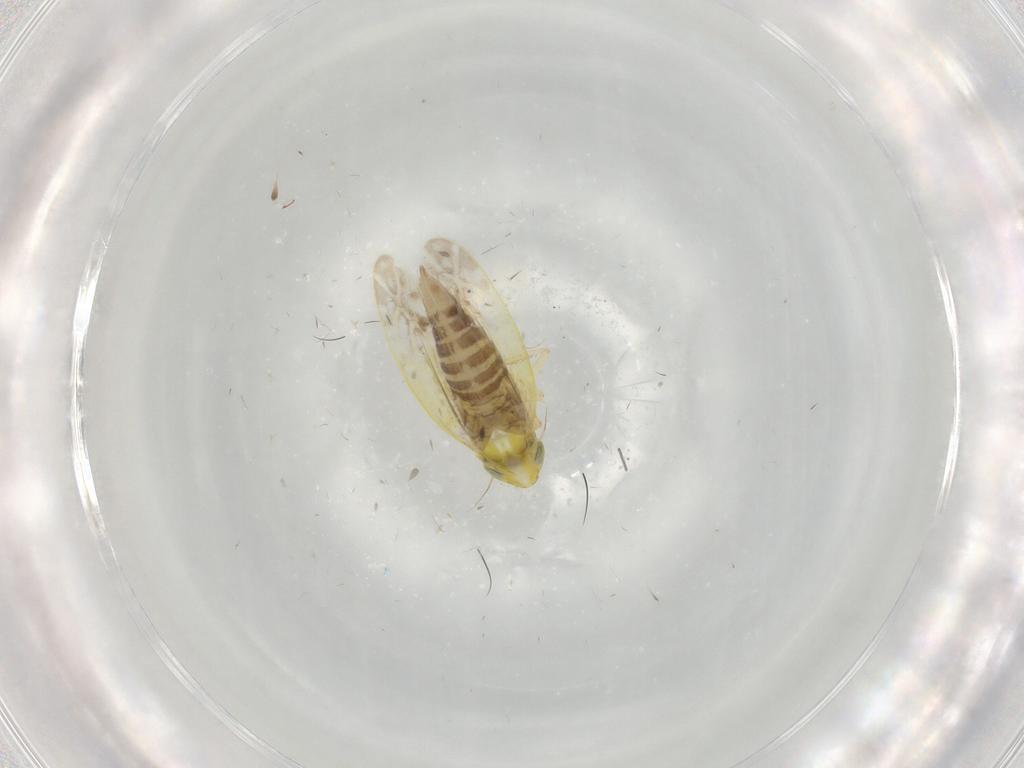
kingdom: Animalia
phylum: Arthropoda
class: Insecta
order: Hemiptera
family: Cicadellidae
